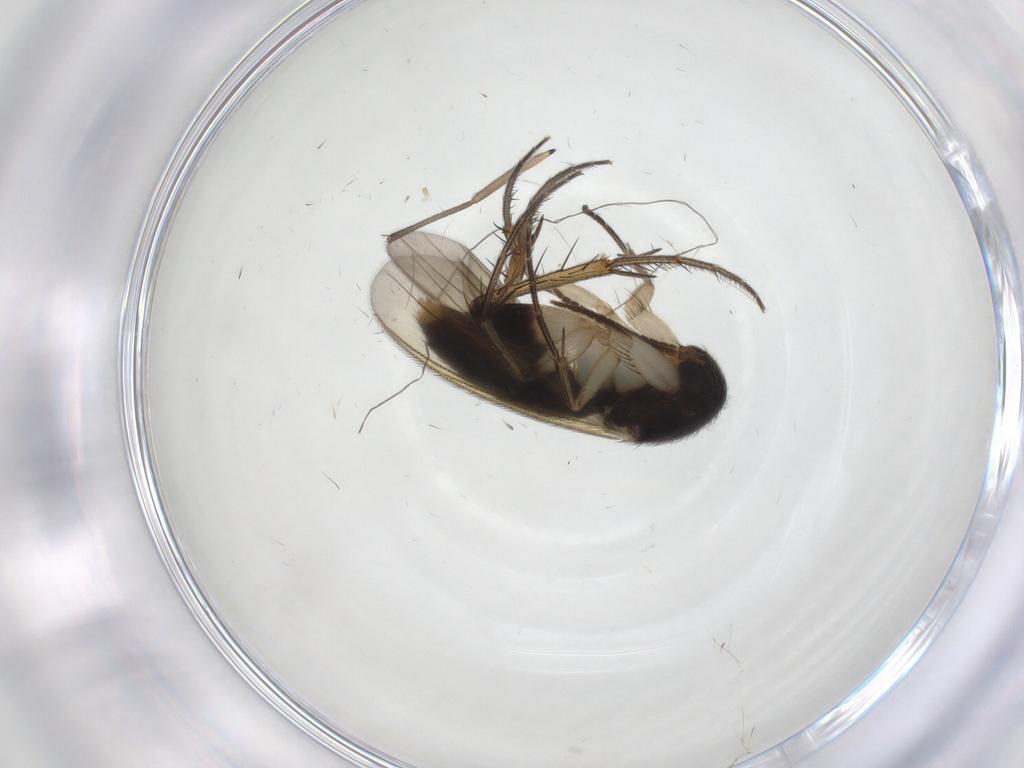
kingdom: Animalia
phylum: Arthropoda
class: Insecta
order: Diptera
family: Mycetophilidae
